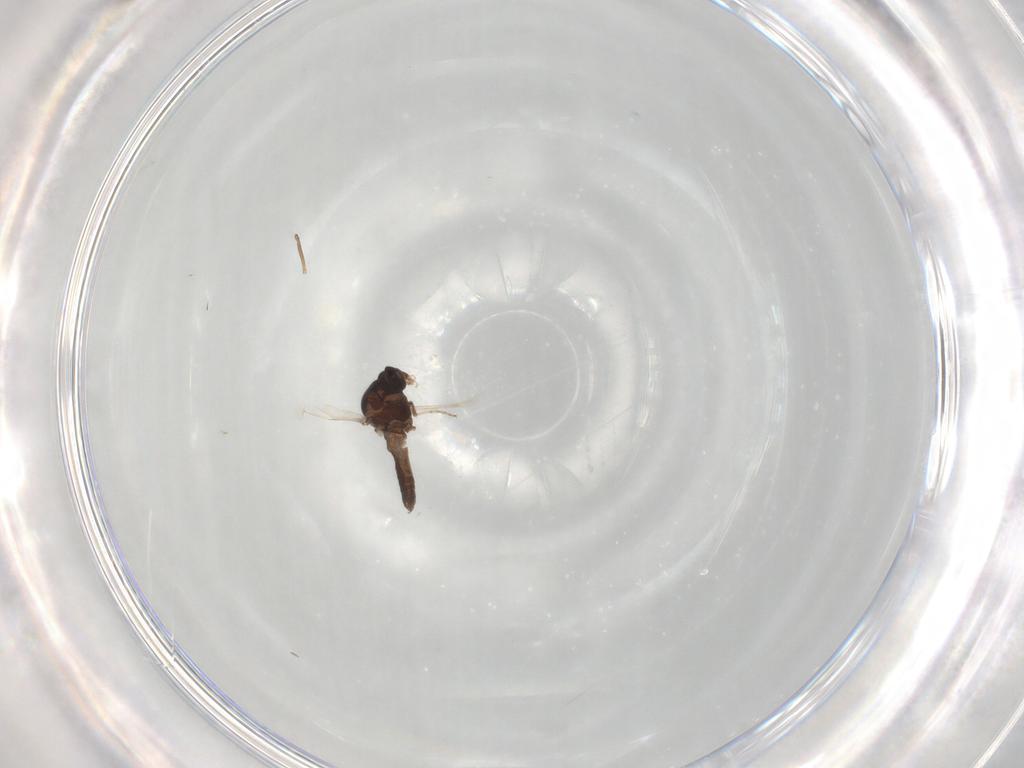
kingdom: Animalia
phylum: Arthropoda
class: Insecta
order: Diptera
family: Ceratopogonidae
